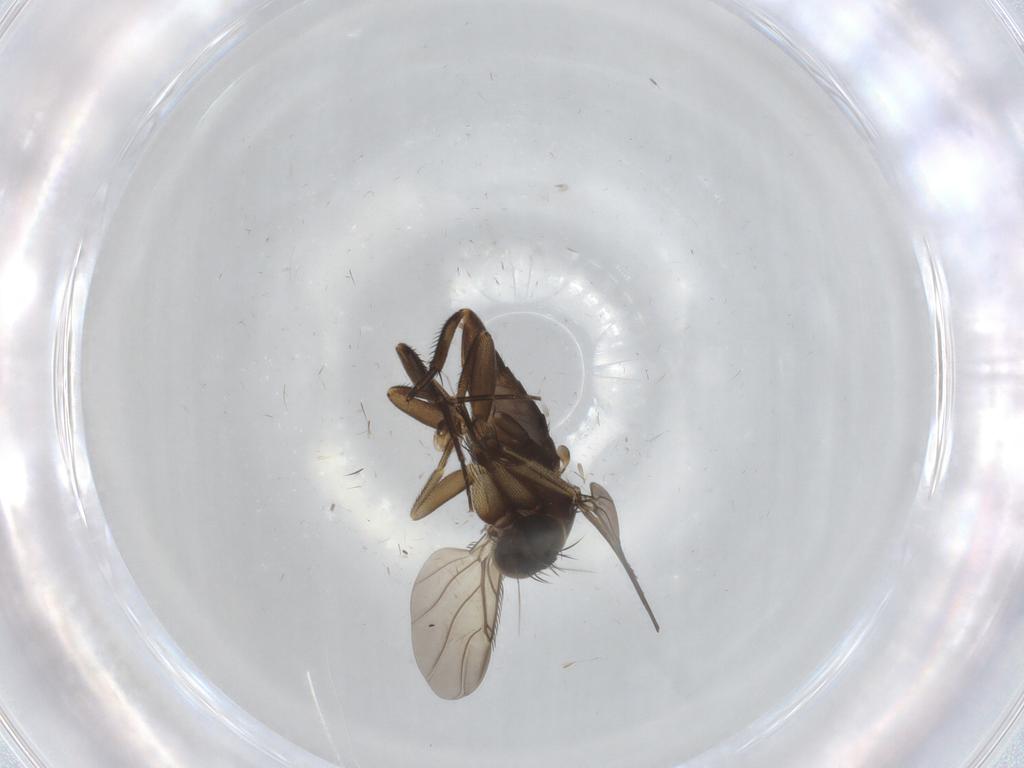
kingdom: Animalia
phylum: Arthropoda
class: Insecta
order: Diptera
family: Phoridae
